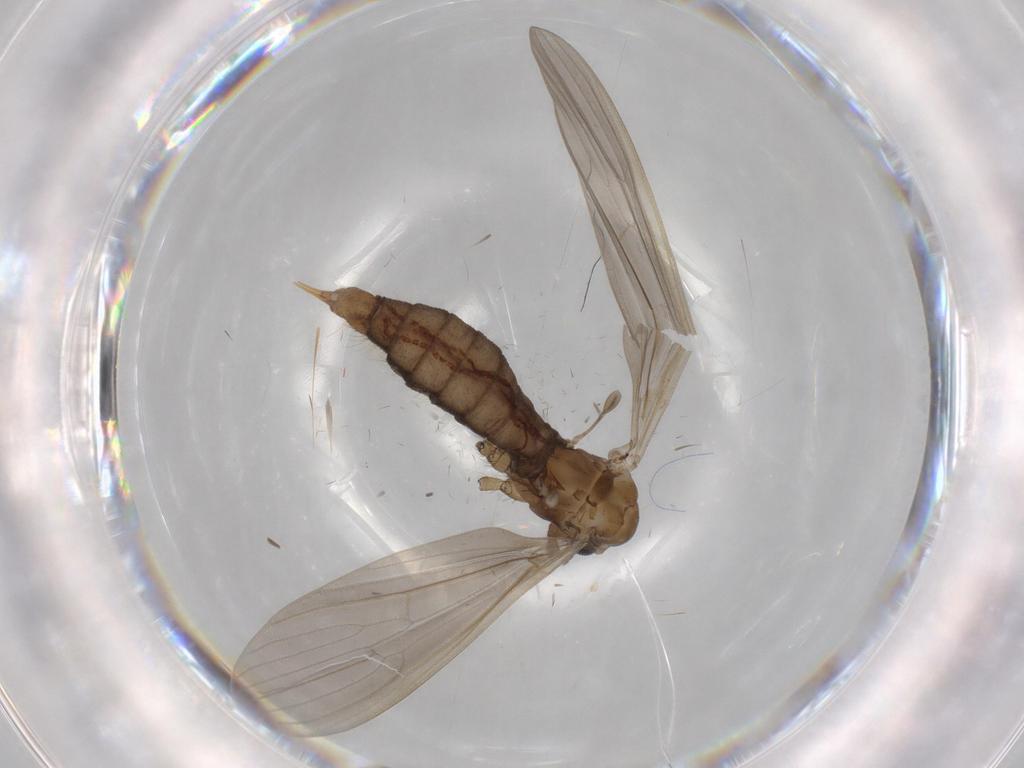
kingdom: Animalia
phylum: Arthropoda
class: Insecta
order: Diptera
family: Limoniidae
